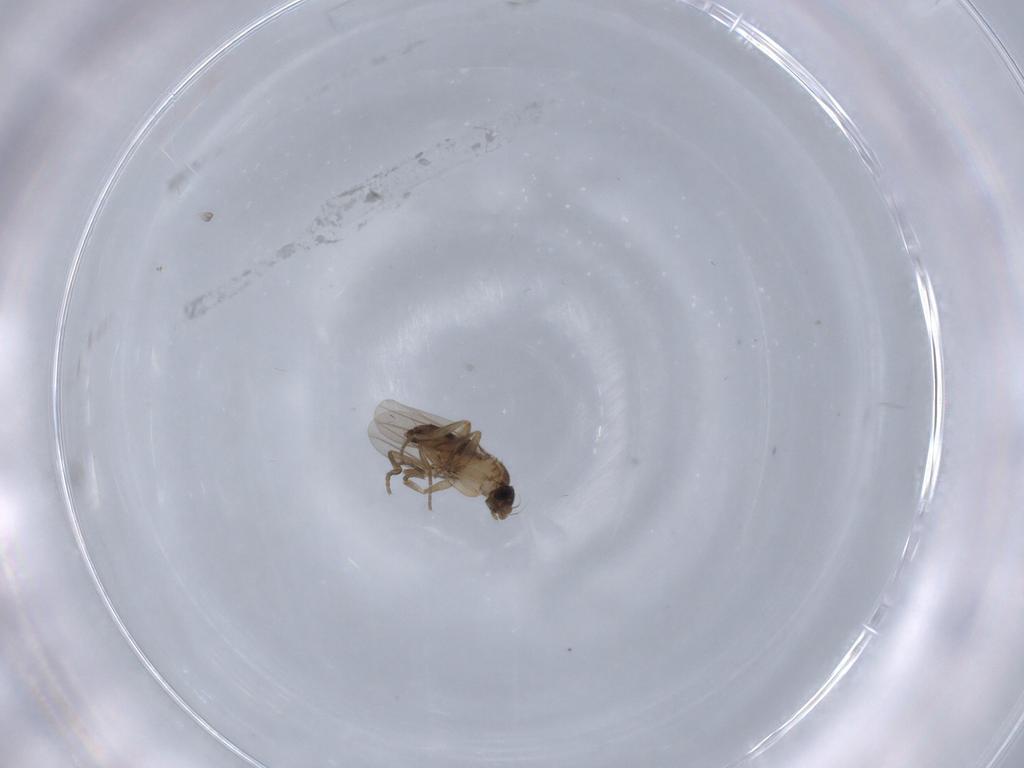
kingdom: Animalia
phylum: Arthropoda
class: Insecta
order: Diptera
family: Phoridae
